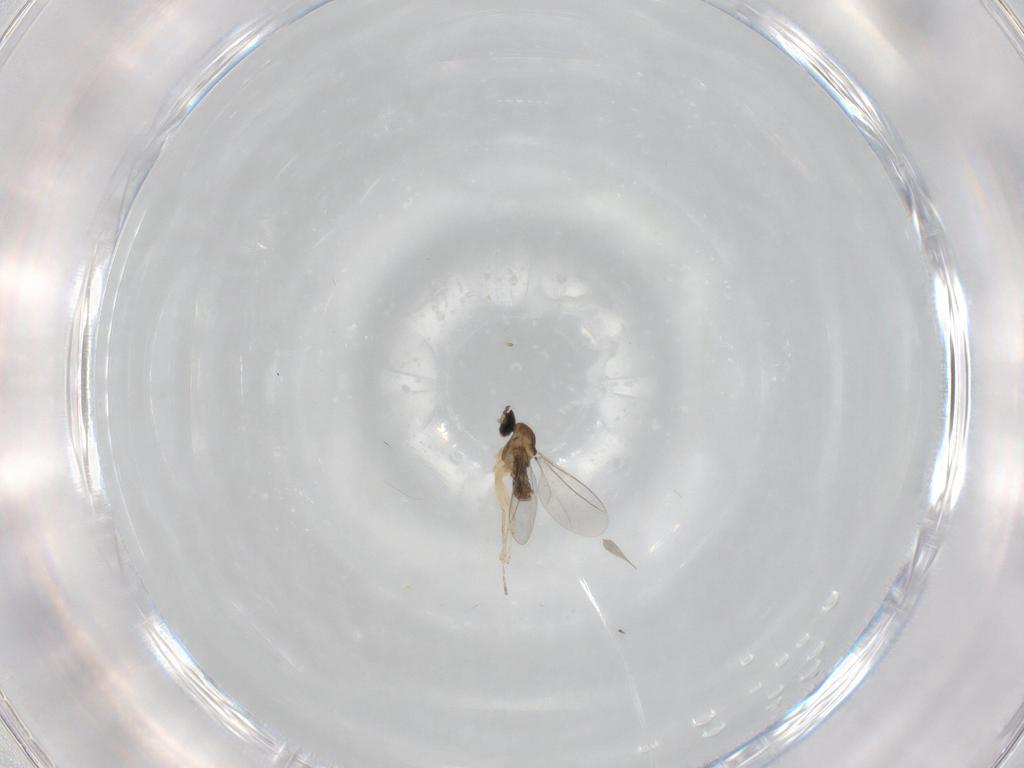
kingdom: Animalia
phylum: Arthropoda
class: Insecta
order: Diptera
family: Cecidomyiidae
